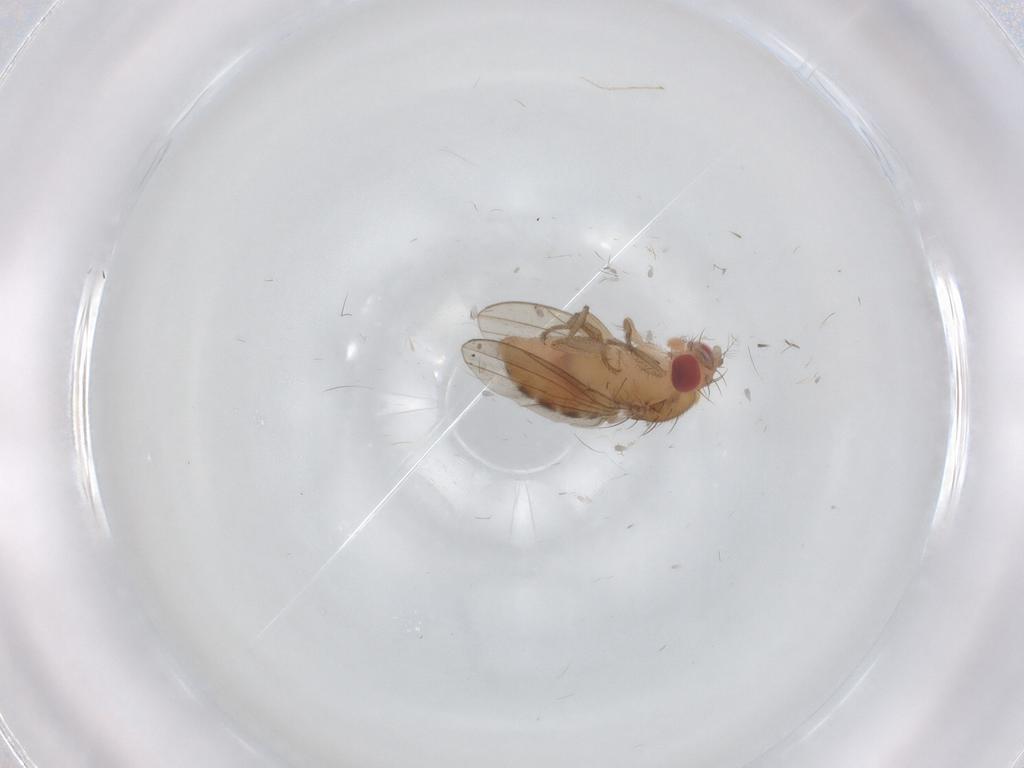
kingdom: Animalia
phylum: Arthropoda
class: Insecta
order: Diptera
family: Drosophilidae
